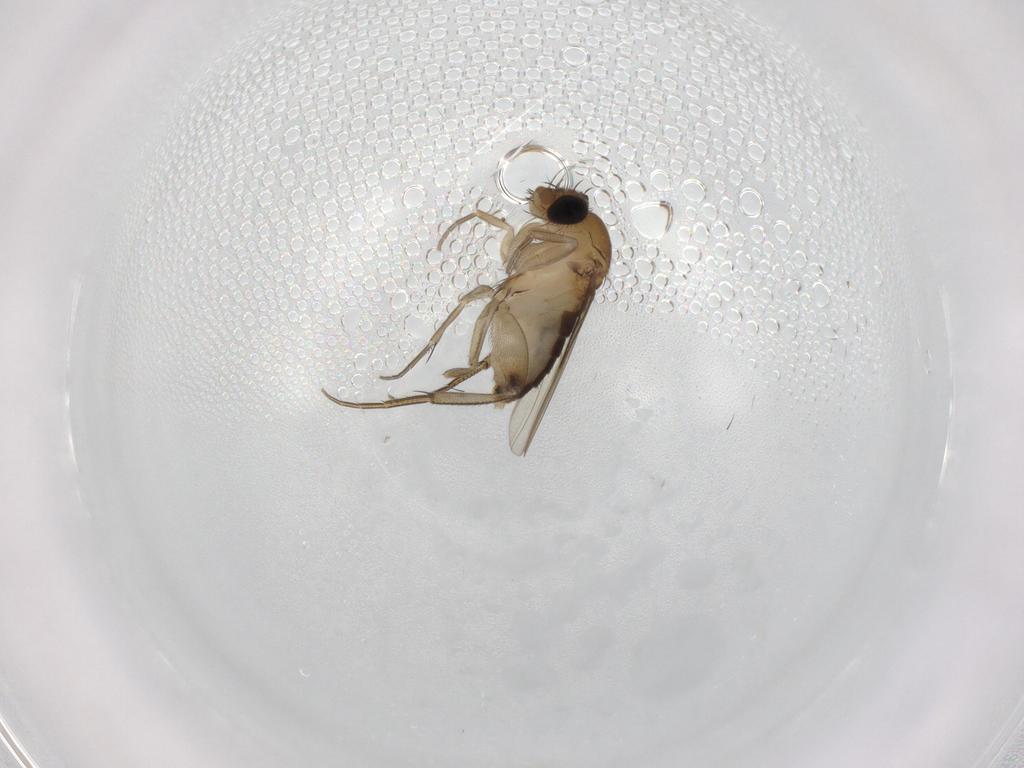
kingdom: Animalia
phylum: Arthropoda
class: Insecta
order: Diptera
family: Phoridae
